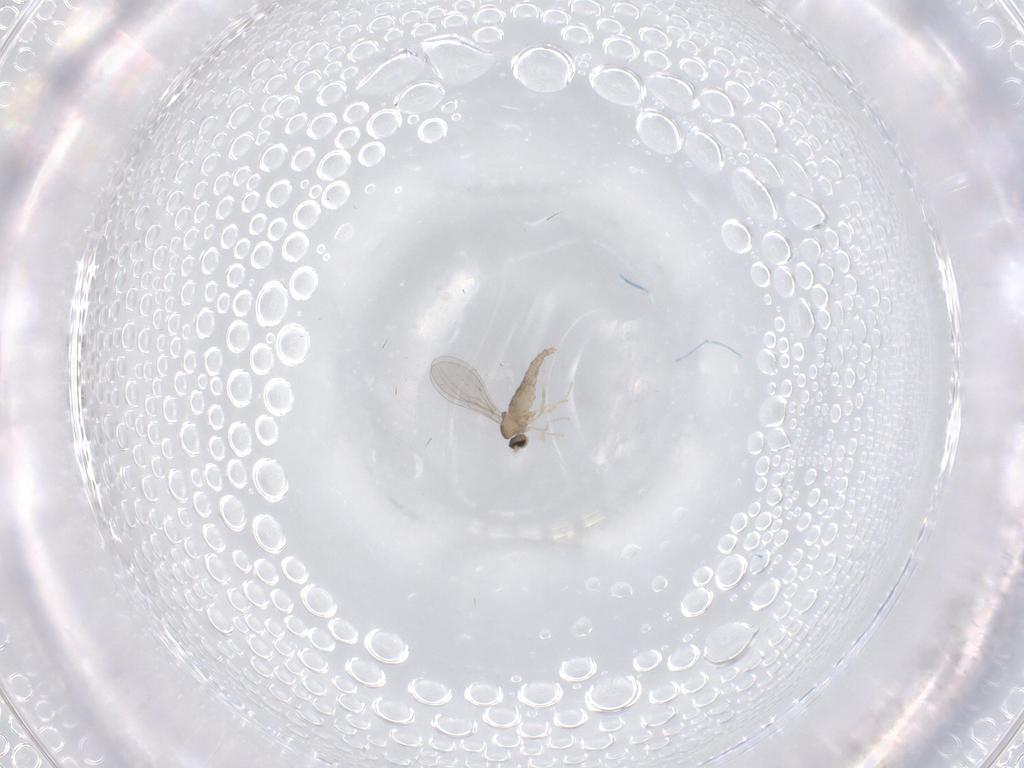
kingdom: Animalia
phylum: Arthropoda
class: Insecta
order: Diptera
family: Cecidomyiidae
